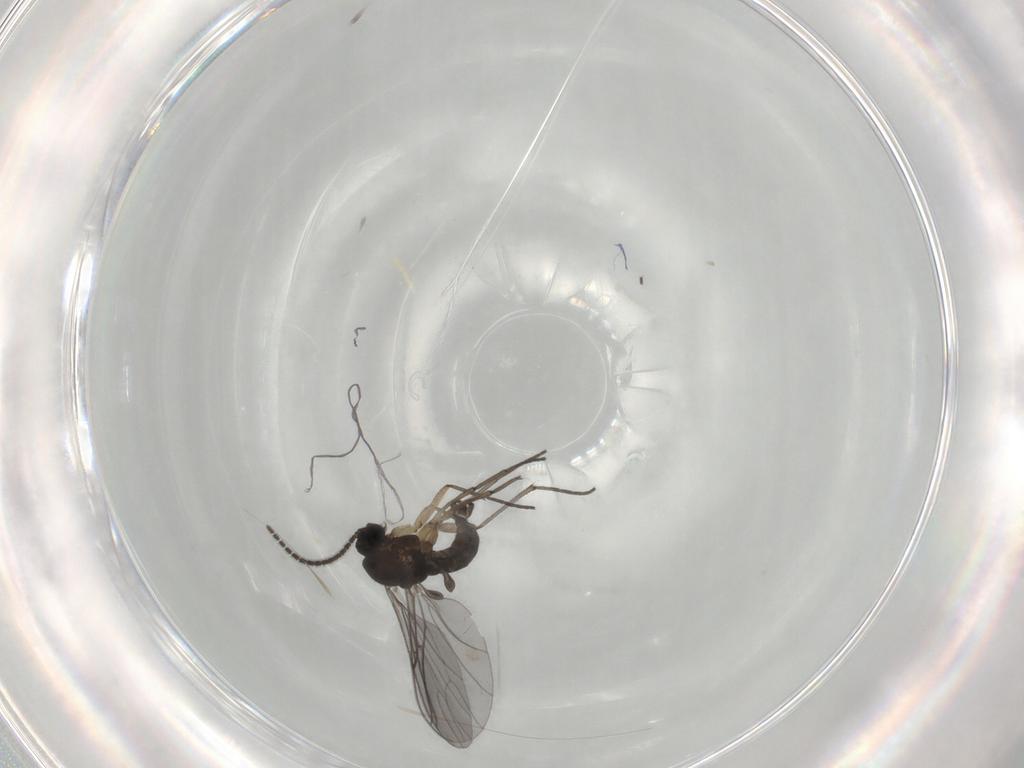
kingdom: Animalia
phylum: Arthropoda
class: Insecta
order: Diptera
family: Sciaridae
